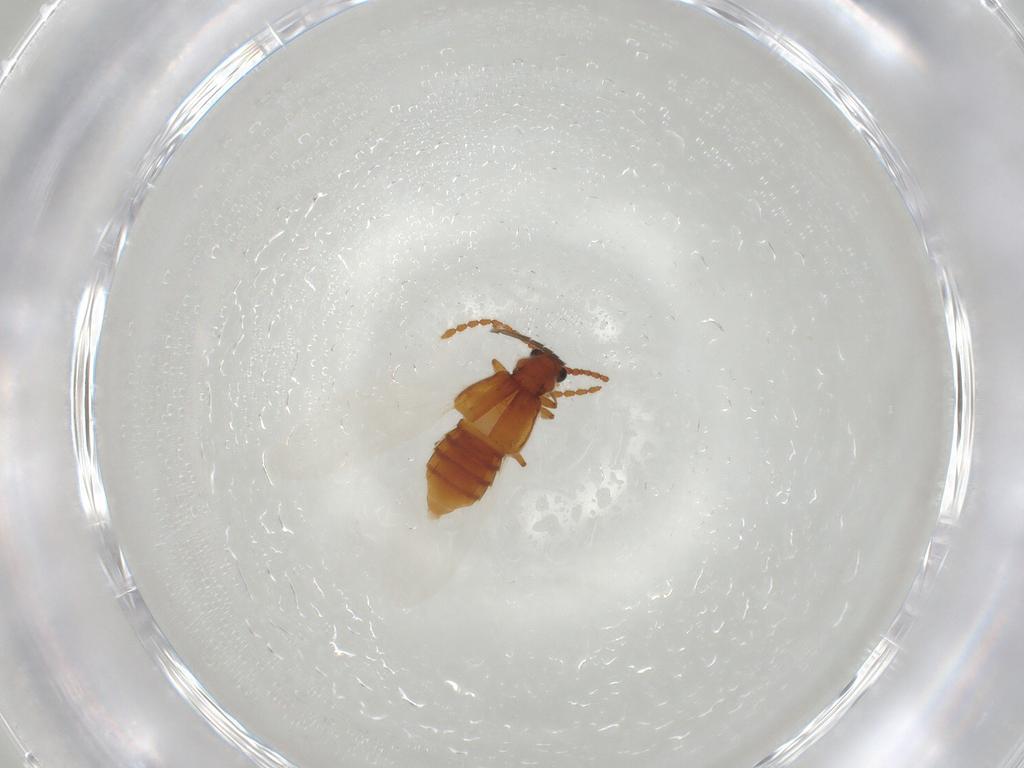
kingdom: Animalia
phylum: Arthropoda
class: Insecta
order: Coleoptera
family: Staphylinidae
